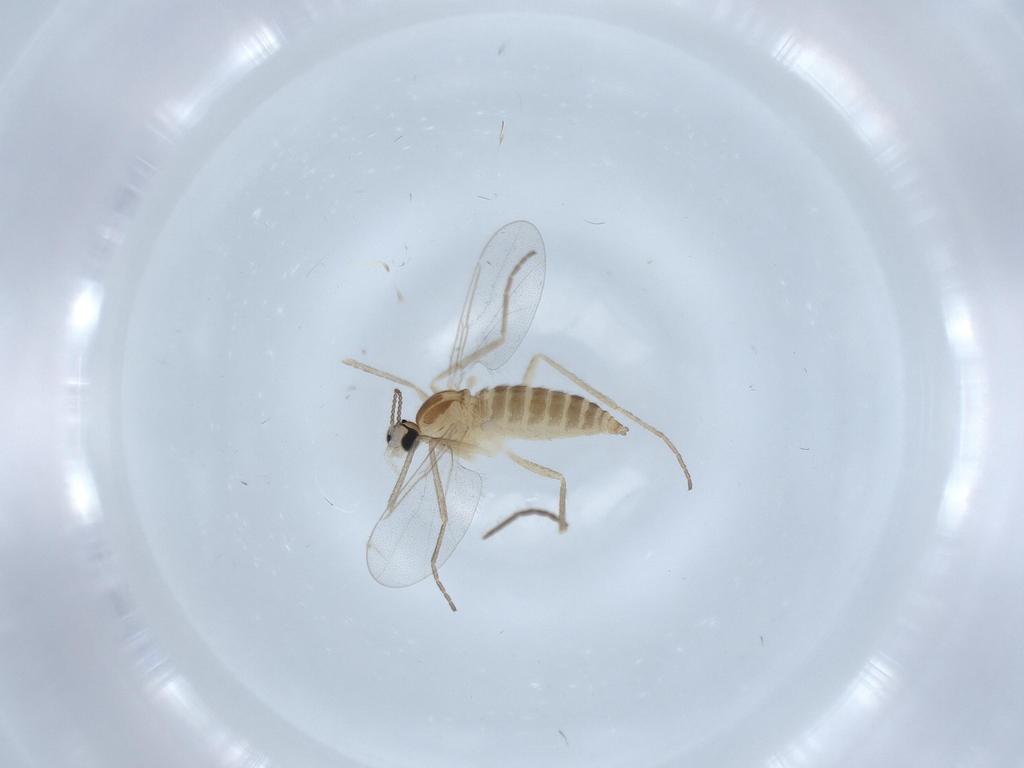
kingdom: Animalia
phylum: Arthropoda
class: Insecta
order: Diptera
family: Cecidomyiidae
